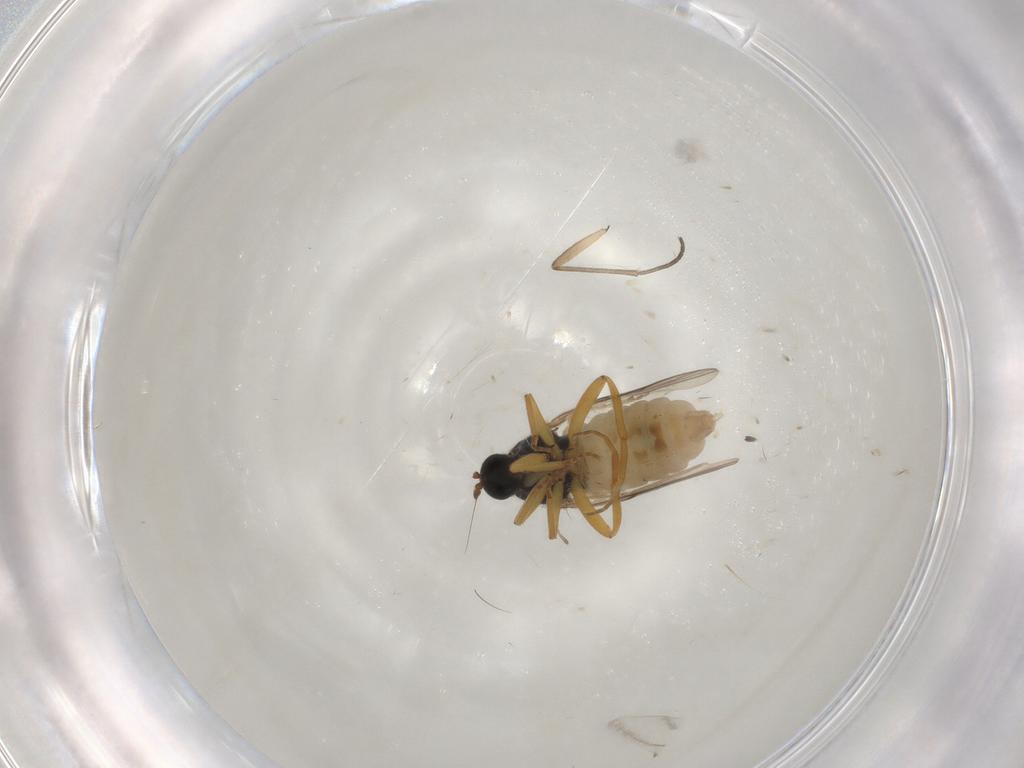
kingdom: Animalia
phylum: Arthropoda
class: Insecta
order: Diptera
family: Cecidomyiidae
